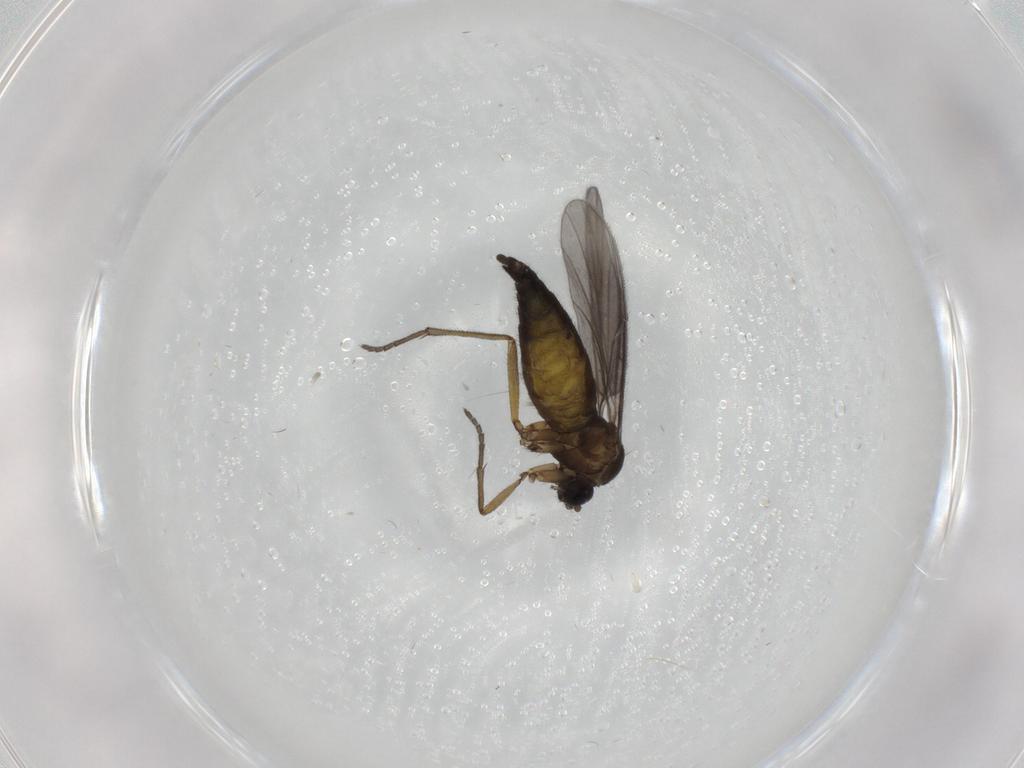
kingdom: Animalia
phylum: Arthropoda
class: Insecta
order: Diptera
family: Sciaridae
